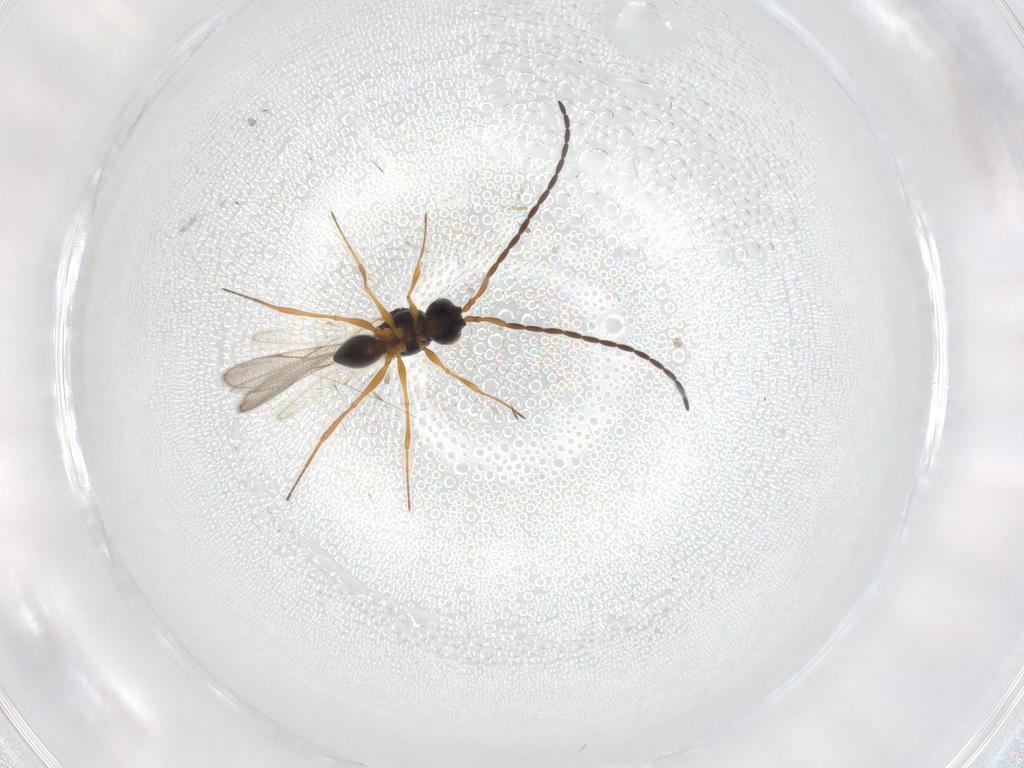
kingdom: Animalia
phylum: Arthropoda
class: Insecta
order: Hymenoptera
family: Figitidae
